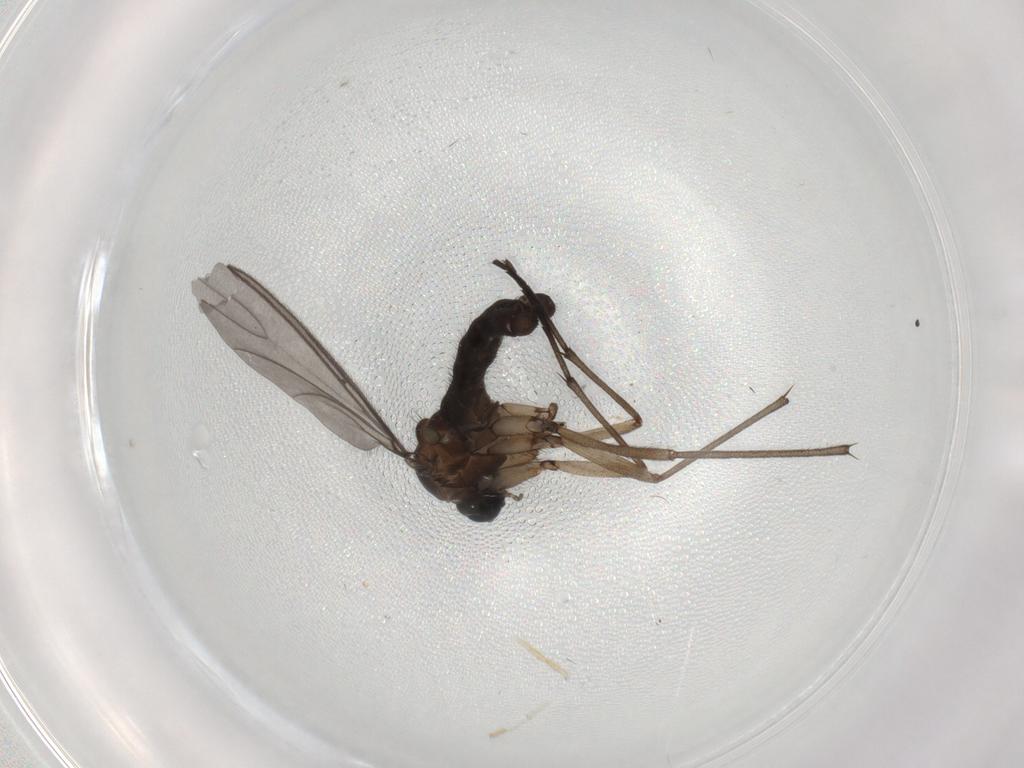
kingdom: Animalia
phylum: Arthropoda
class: Insecta
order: Diptera
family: Sciaridae
